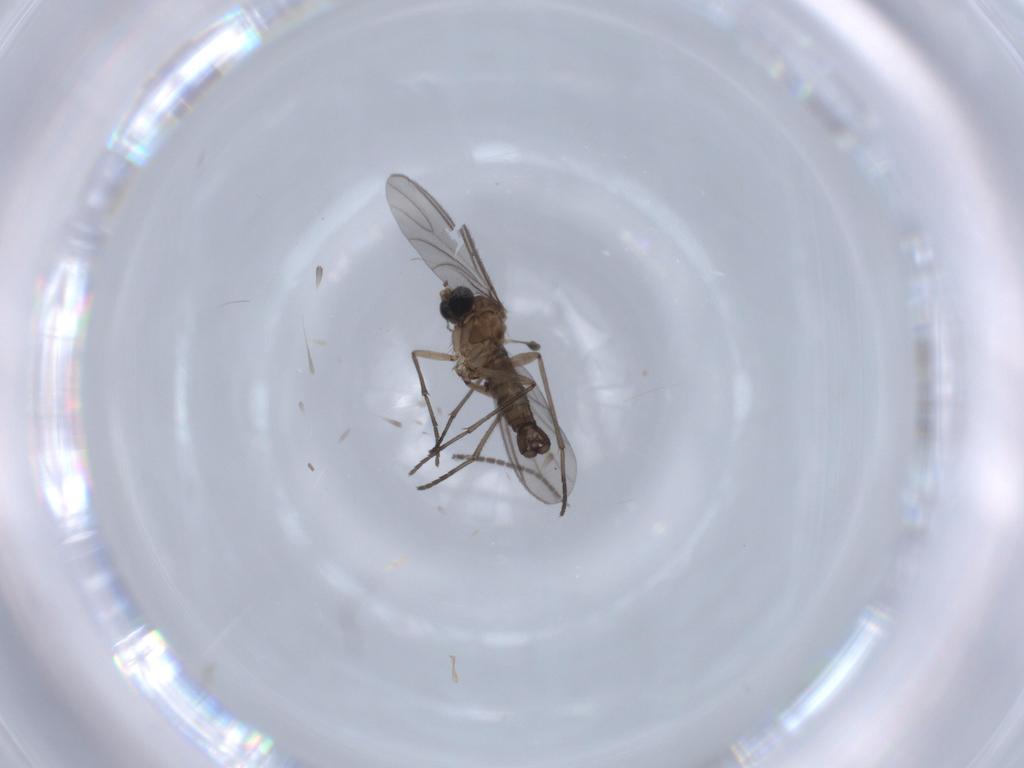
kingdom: Animalia
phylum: Arthropoda
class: Insecta
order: Diptera
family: Sciaridae
